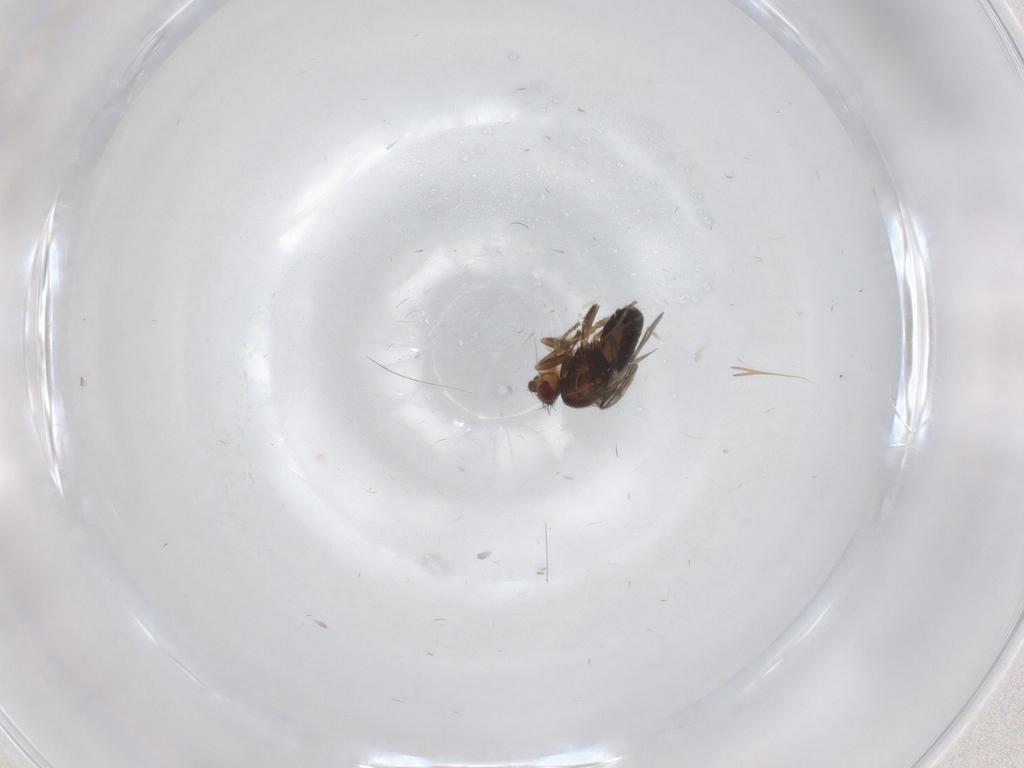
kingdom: Animalia
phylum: Arthropoda
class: Insecta
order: Diptera
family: Sphaeroceridae
